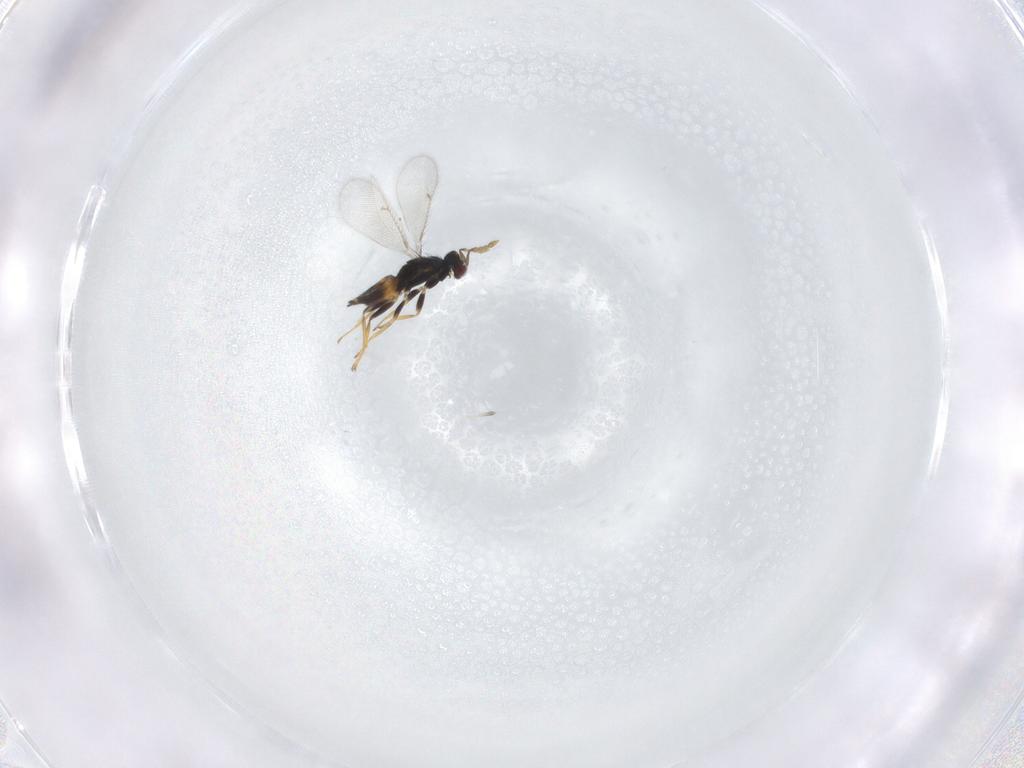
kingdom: Animalia
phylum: Arthropoda
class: Insecta
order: Hymenoptera
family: Eulophidae
